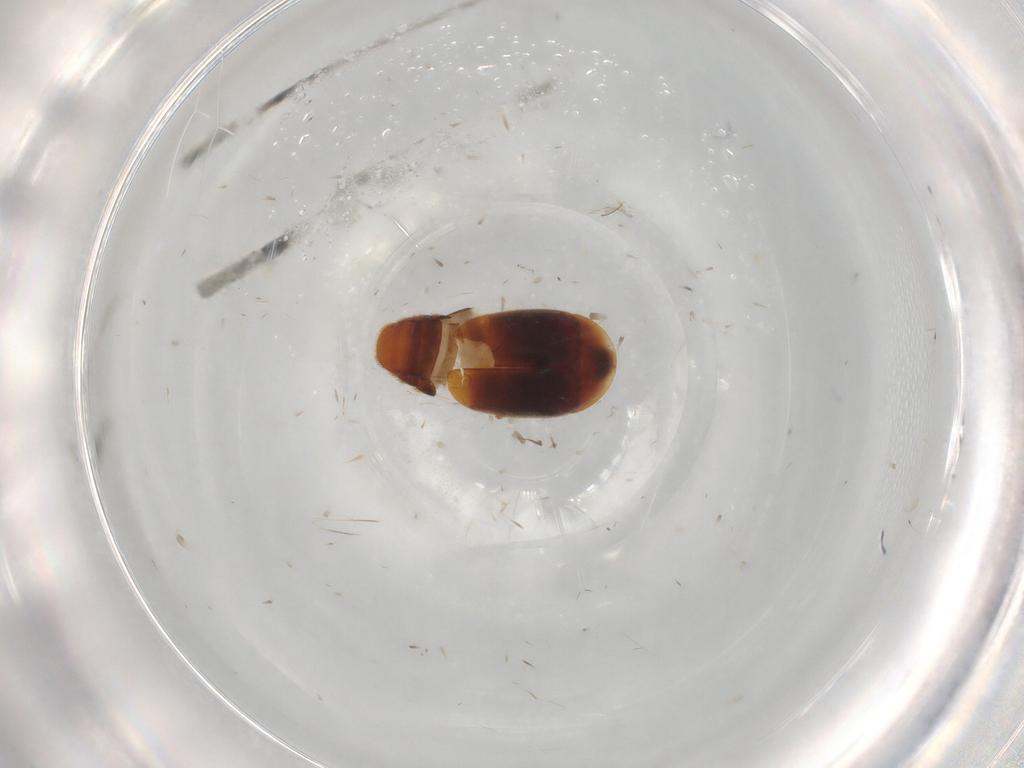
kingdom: Animalia
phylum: Arthropoda
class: Insecta
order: Coleoptera
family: Corylophidae
